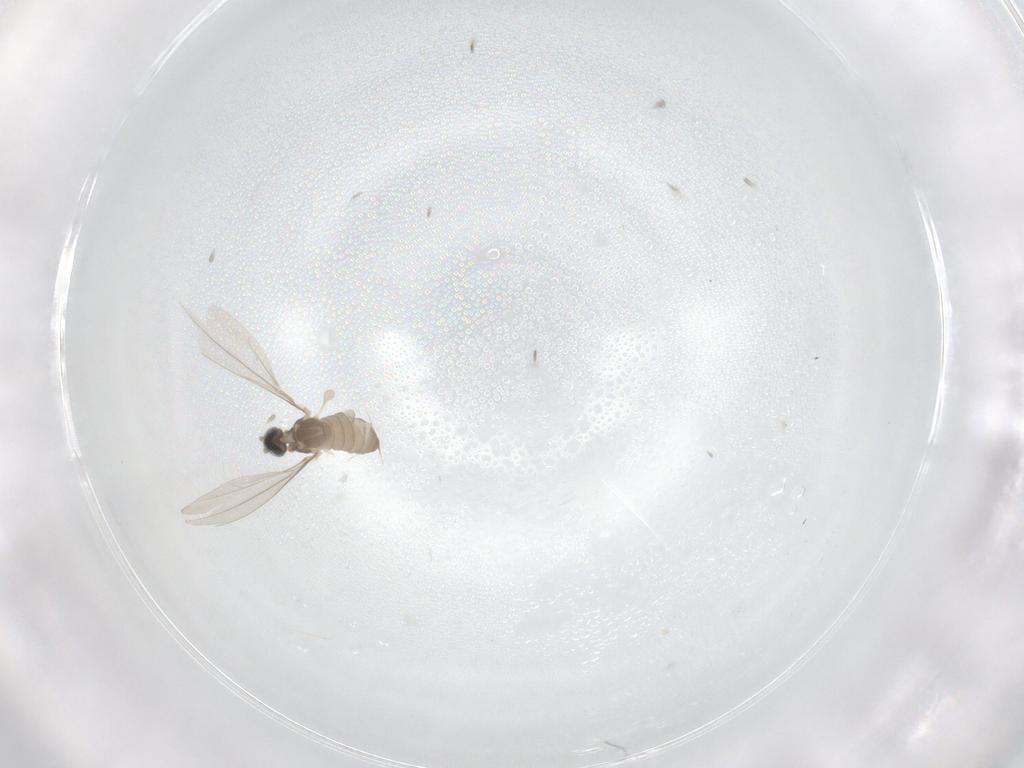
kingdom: Animalia
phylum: Arthropoda
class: Insecta
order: Diptera
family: Cecidomyiidae
